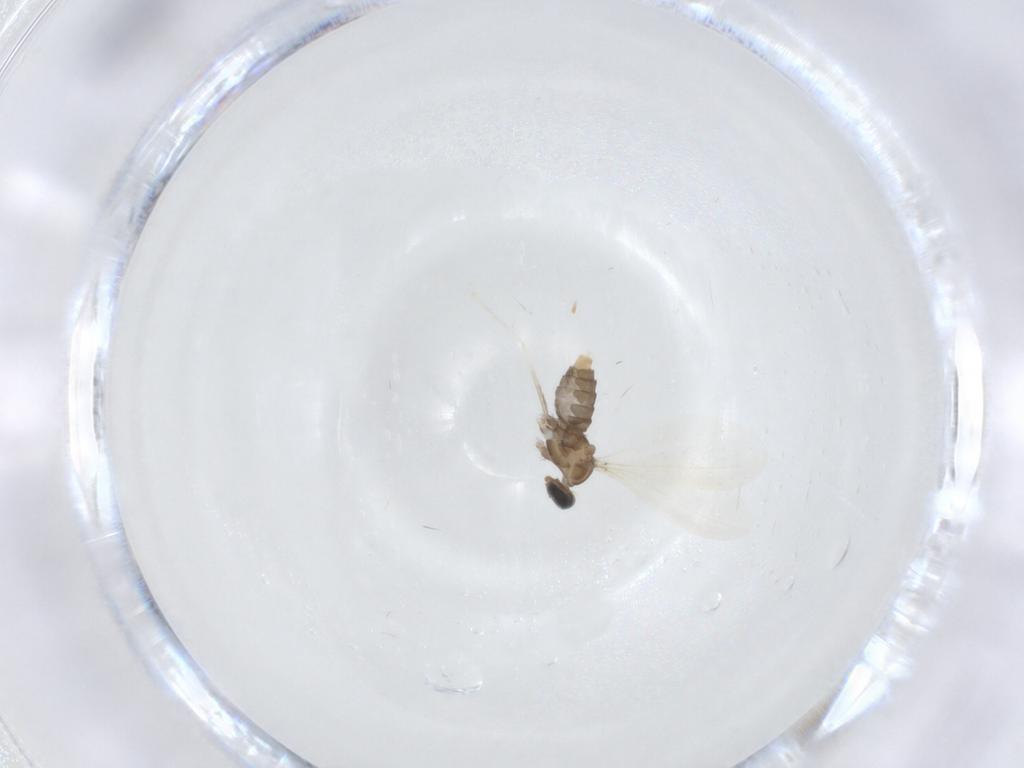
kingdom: Animalia
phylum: Arthropoda
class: Insecta
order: Diptera
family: Cecidomyiidae
